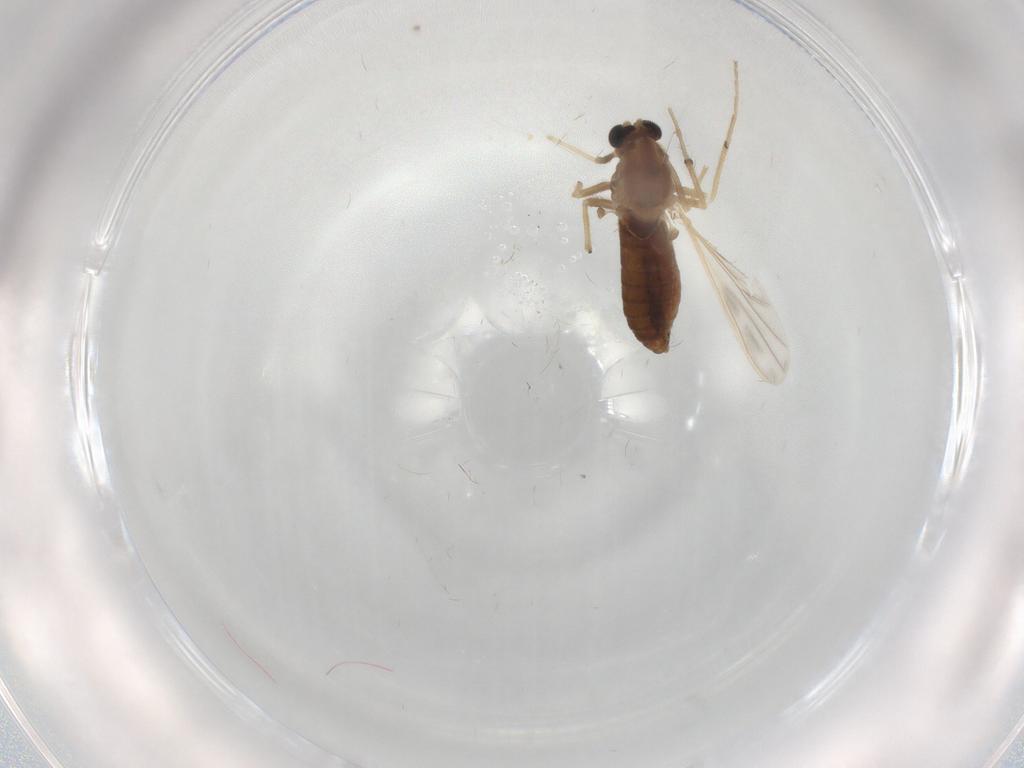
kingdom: Animalia
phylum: Arthropoda
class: Insecta
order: Diptera
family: Chironomidae
